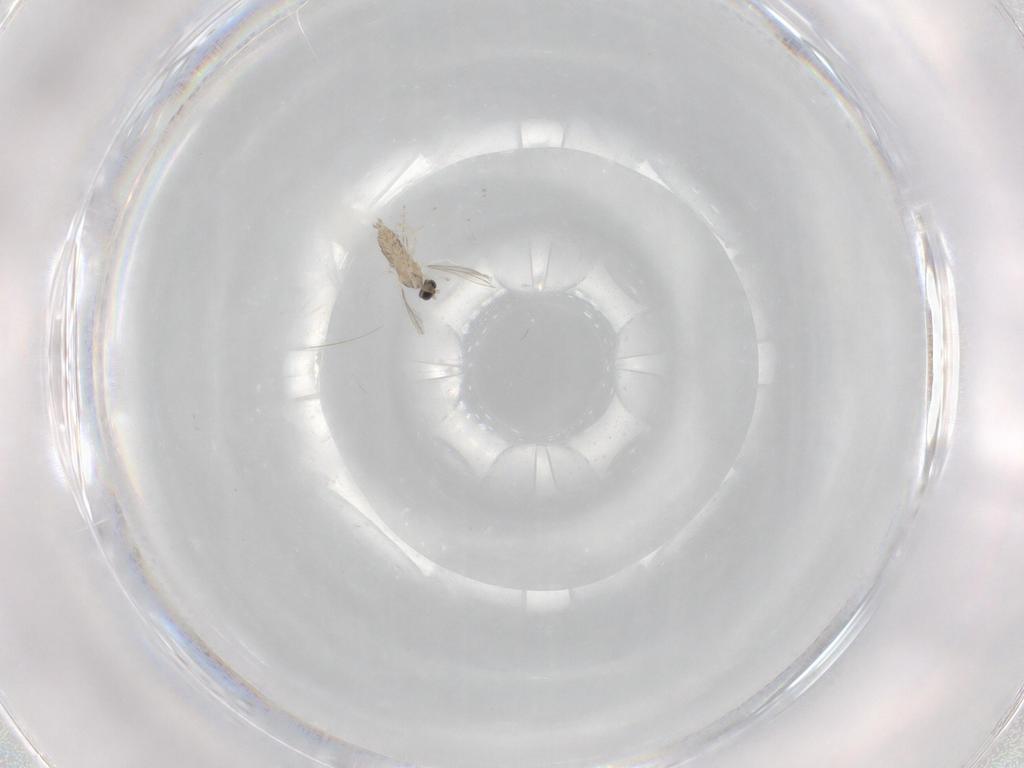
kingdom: Animalia
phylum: Arthropoda
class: Insecta
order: Diptera
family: Cecidomyiidae
